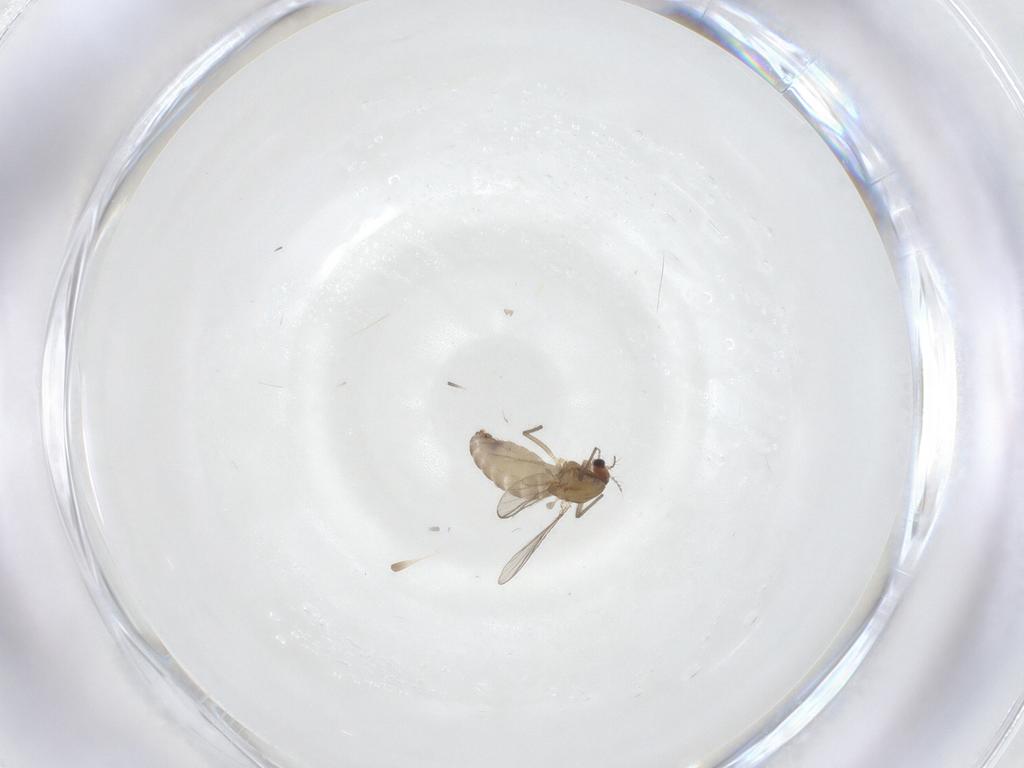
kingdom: Animalia
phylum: Arthropoda
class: Insecta
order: Diptera
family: Chironomidae
